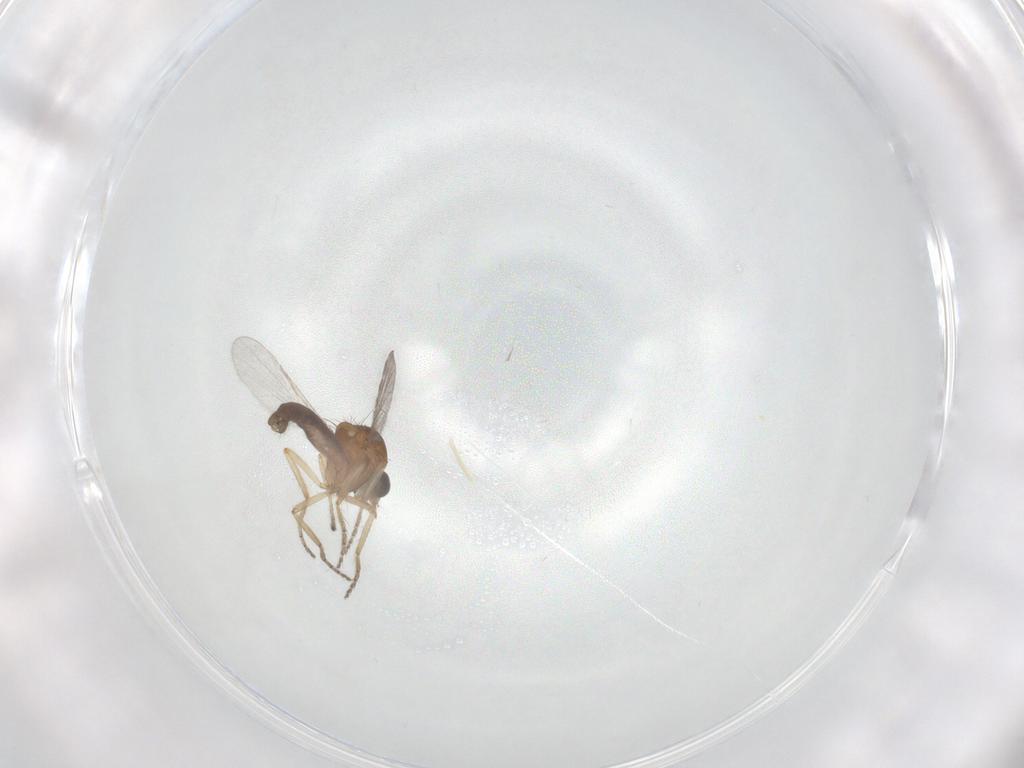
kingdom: Animalia
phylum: Arthropoda
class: Insecta
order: Diptera
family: Ceratopogonidae
